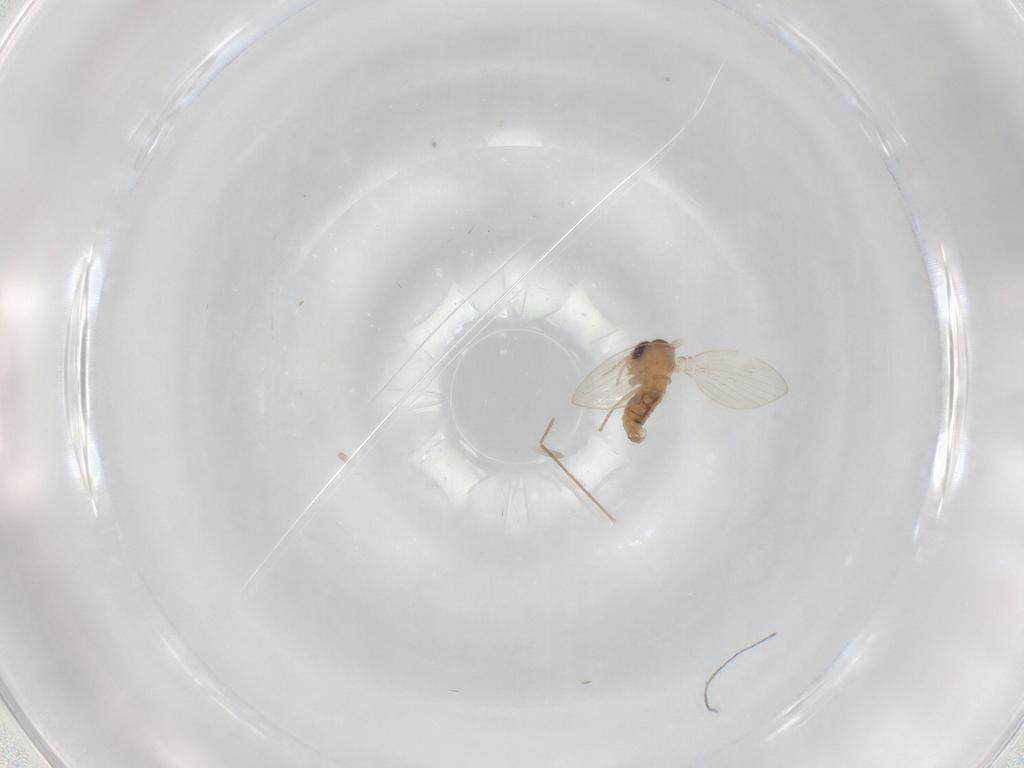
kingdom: Animalia
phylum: Arthropoda
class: Insecta
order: Diptera
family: Psychodidae
